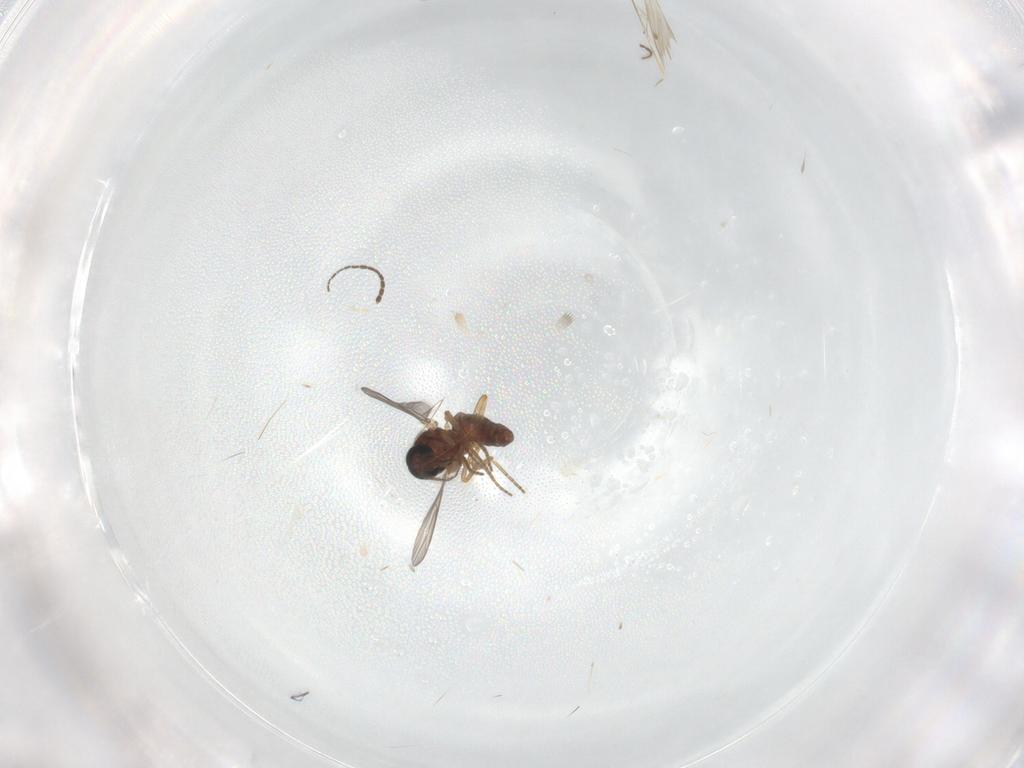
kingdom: Animalia
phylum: Arthropoda
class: Insecta
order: Diptera
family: Ceratopogonidae
